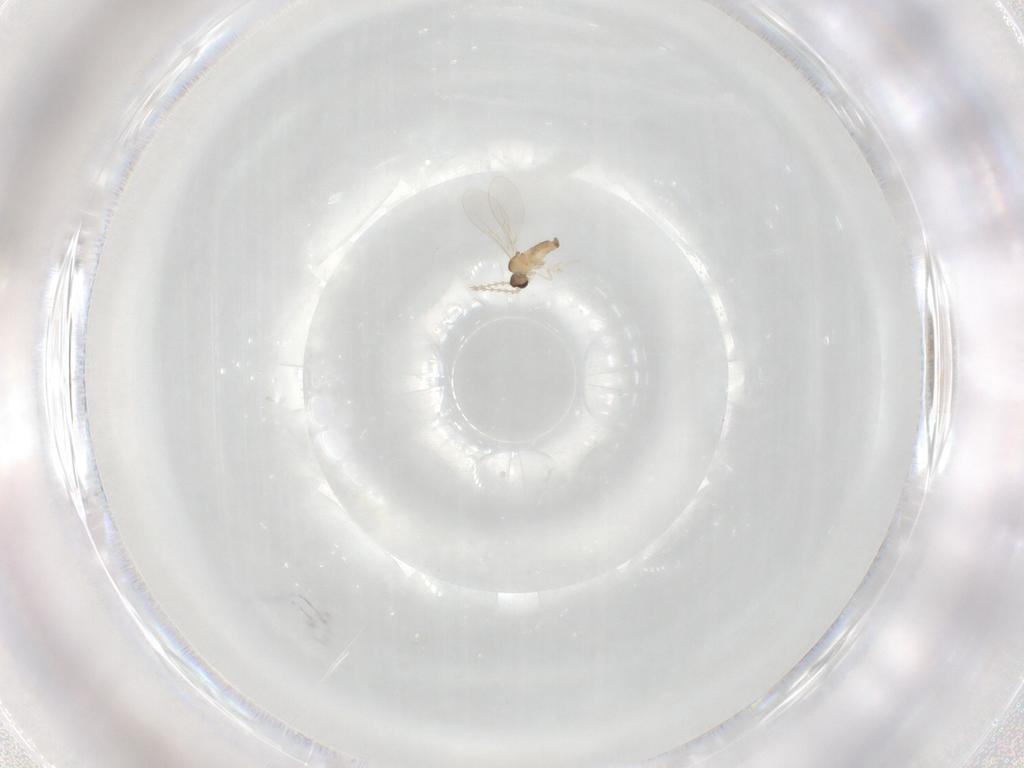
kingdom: Animalia
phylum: Arthropoda
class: Insecta
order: Diptera
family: Cecidomyiidae
